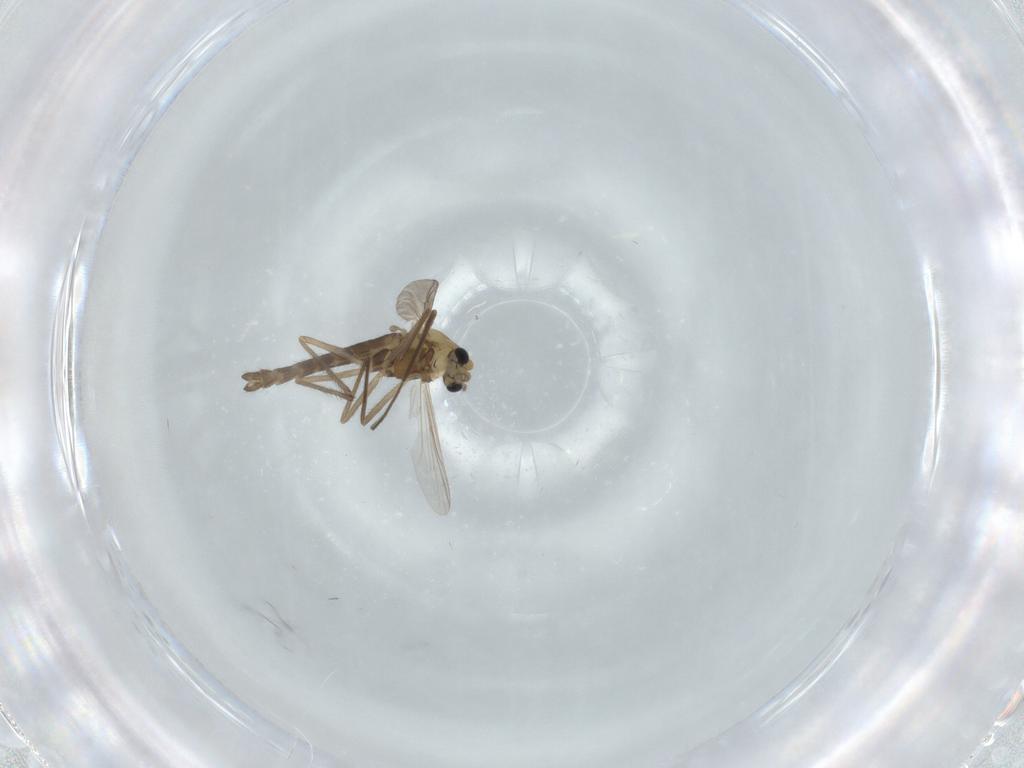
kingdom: Animalia
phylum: Arthropoda
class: Insecta
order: Diptera
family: Chironomidae
